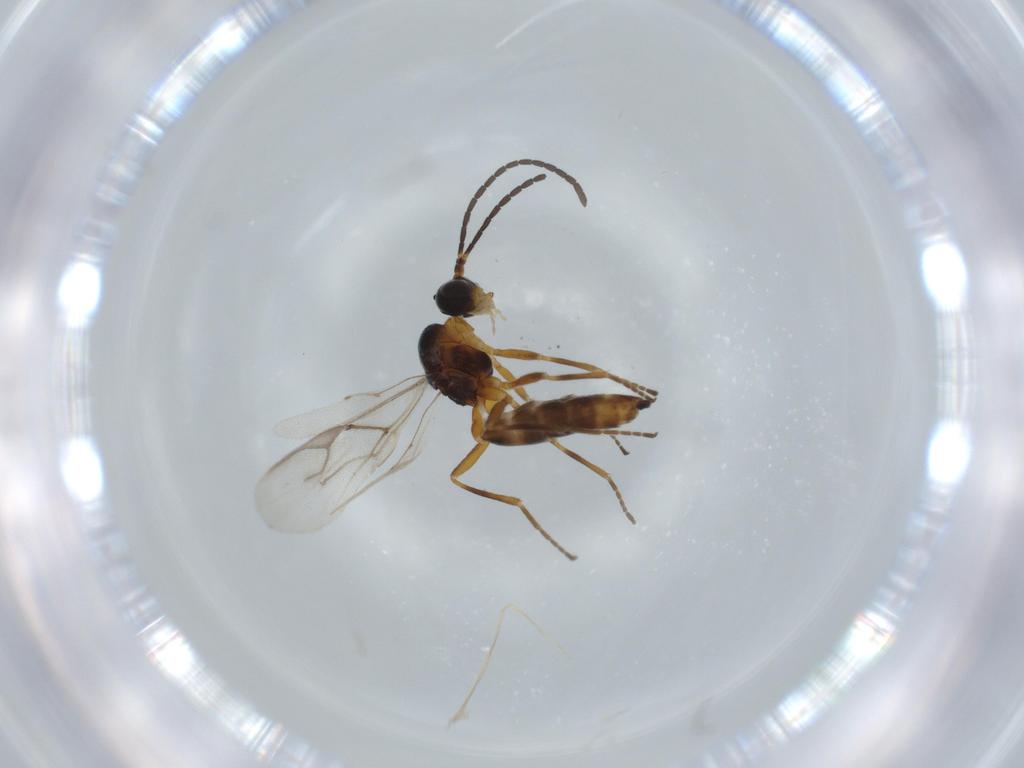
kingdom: Animalia
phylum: Arthropoda
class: Insecta
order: Hymenoptera
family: Braconidae
